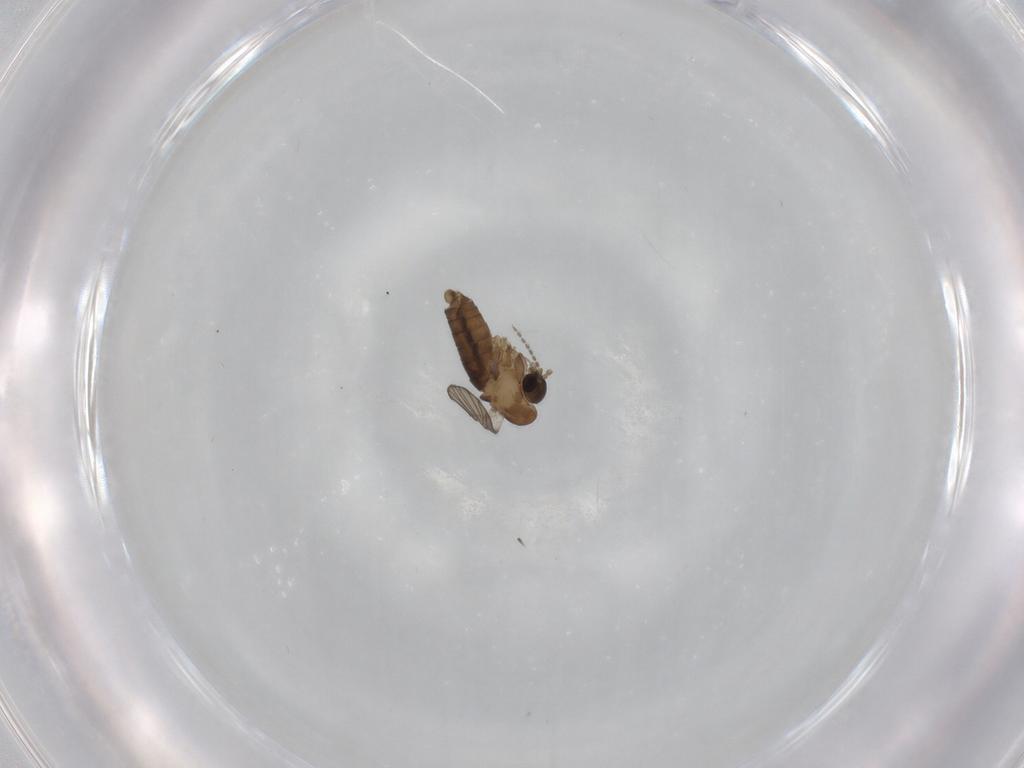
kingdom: Animalia
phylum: Arthropoda
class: Insecta
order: Diptera
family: Psychodidae
